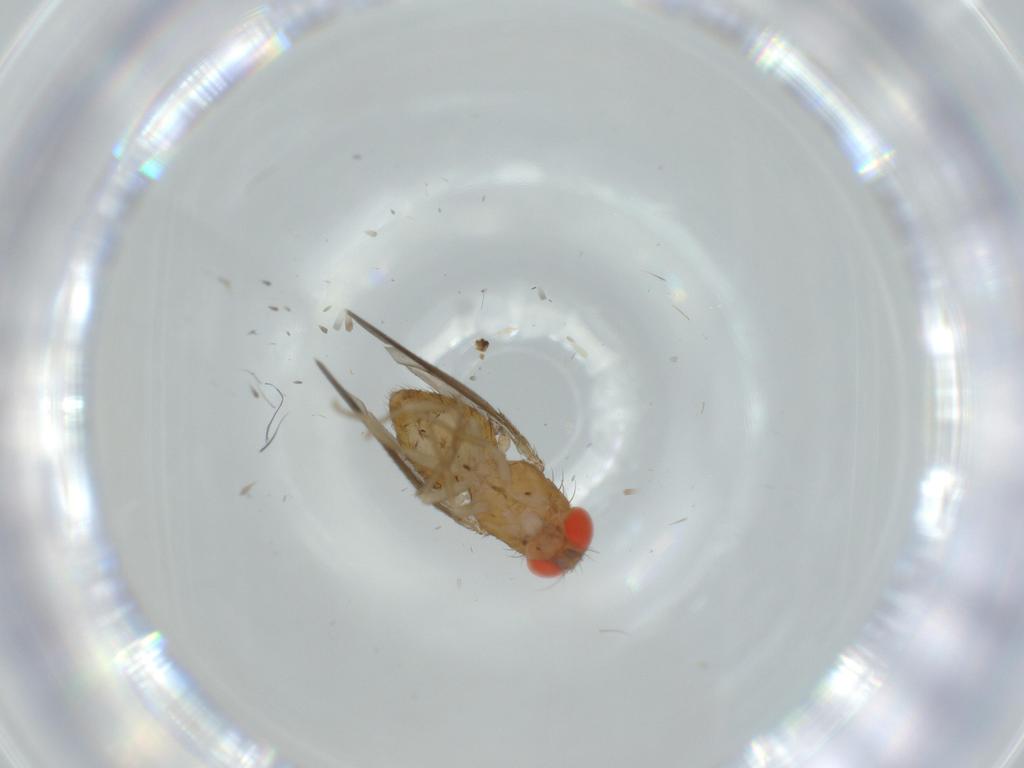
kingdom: Animalia
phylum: Arthropoda
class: Insecta
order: Diptera
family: Drosophilidae
